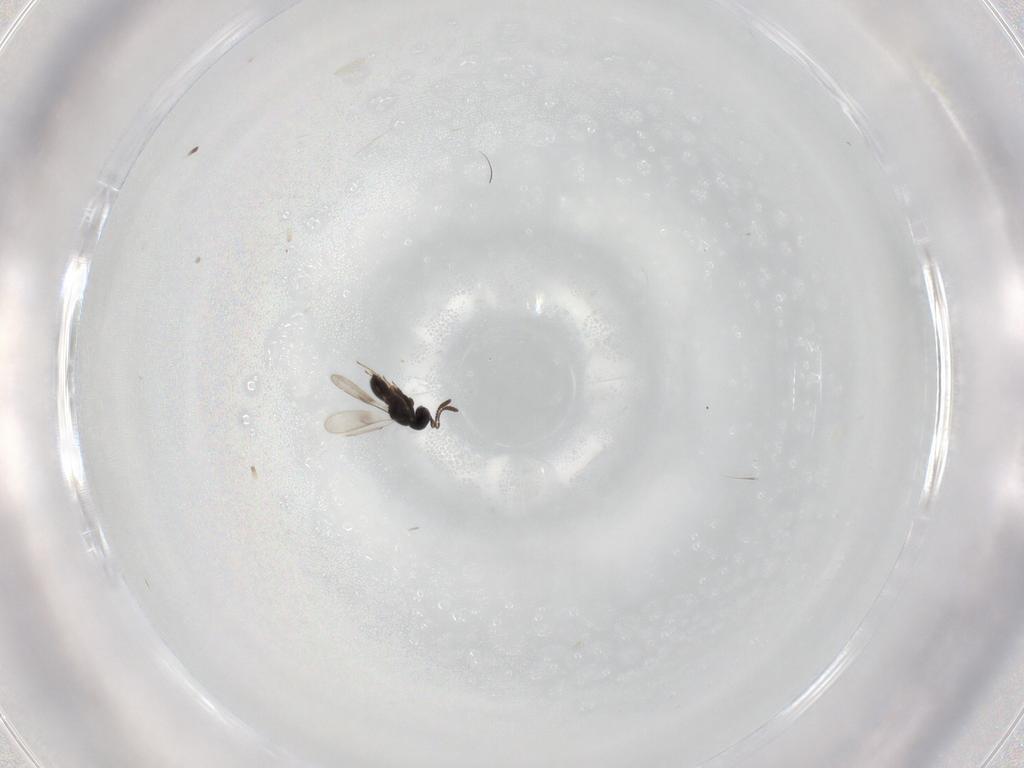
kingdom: Animalia
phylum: Arthropoda
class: Insecta
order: Hymenoptera
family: Scelionidae
